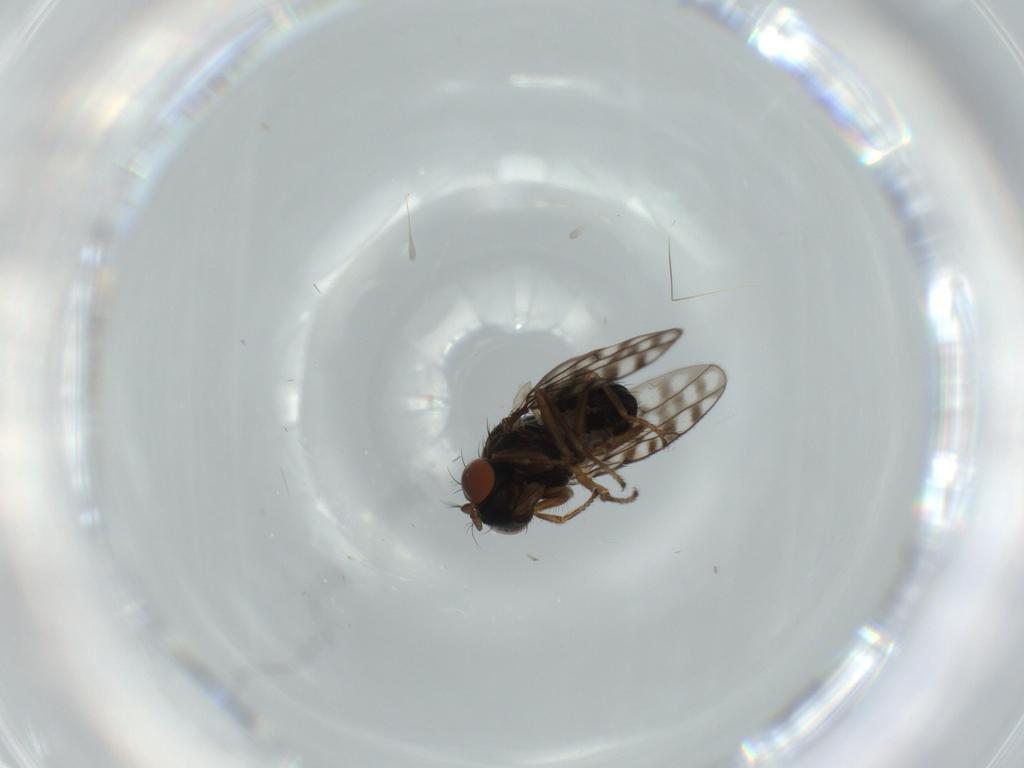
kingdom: Animalia
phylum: Arthropoda
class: Insecta
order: Diptera
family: Ephydridae
